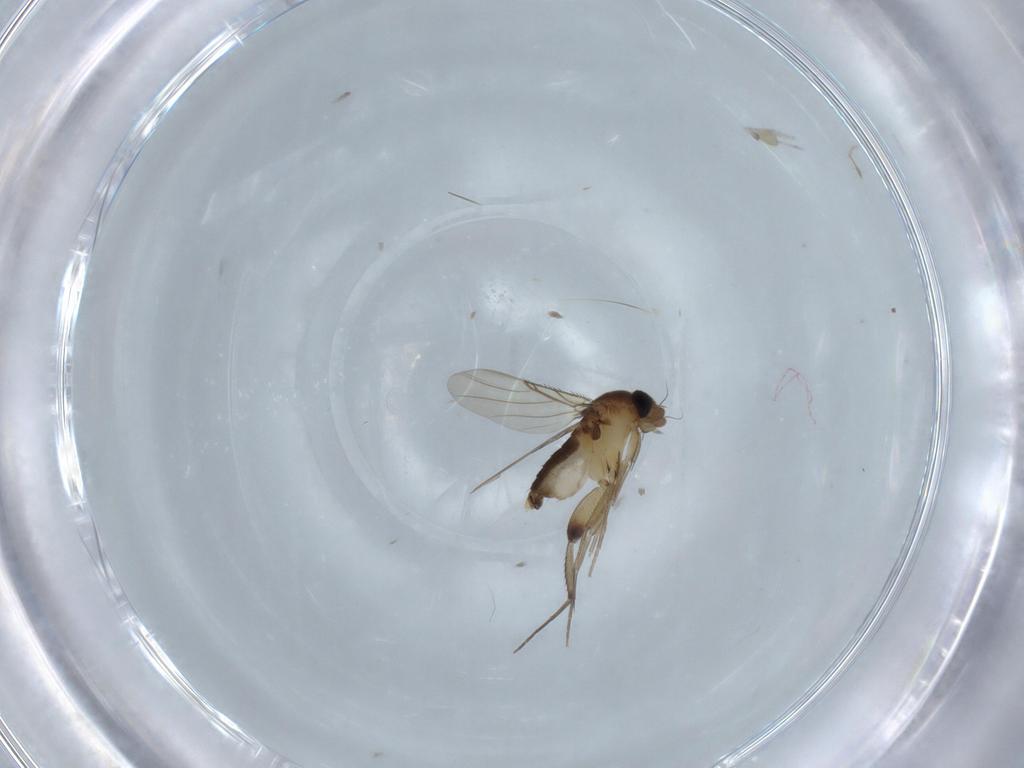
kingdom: Animalia
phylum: Arthropoda
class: Insecta
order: Diptera
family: Phoridae
